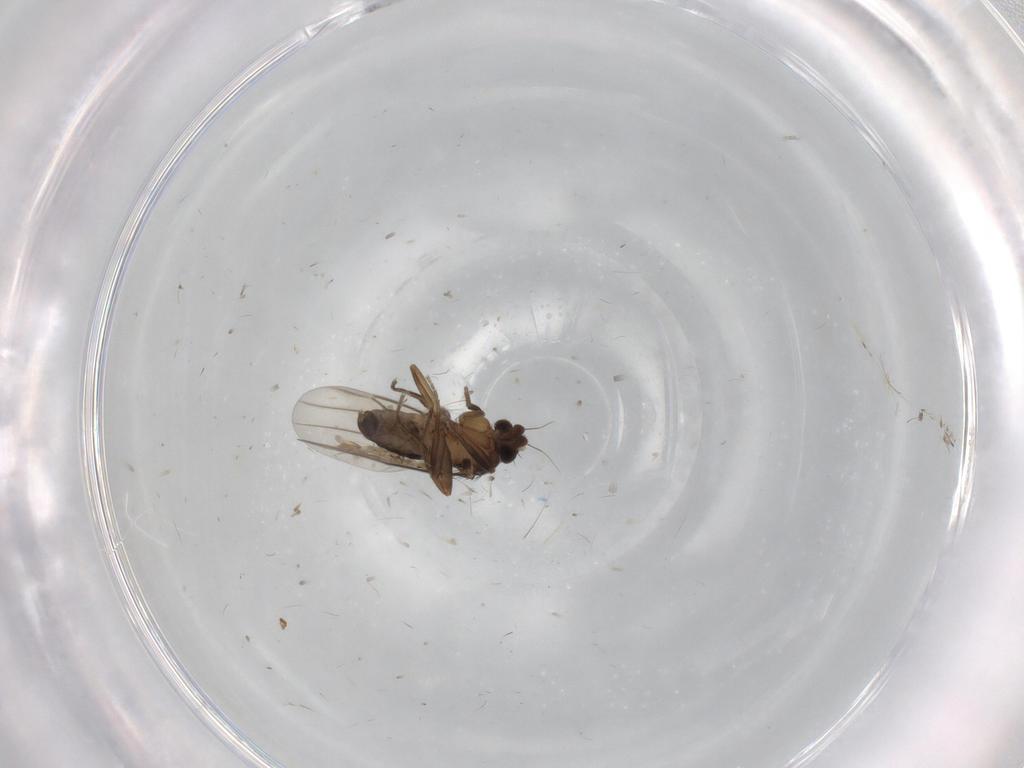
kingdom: Animalia
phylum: Arthropoda
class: Insecta
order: Diptera
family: Phoridae
